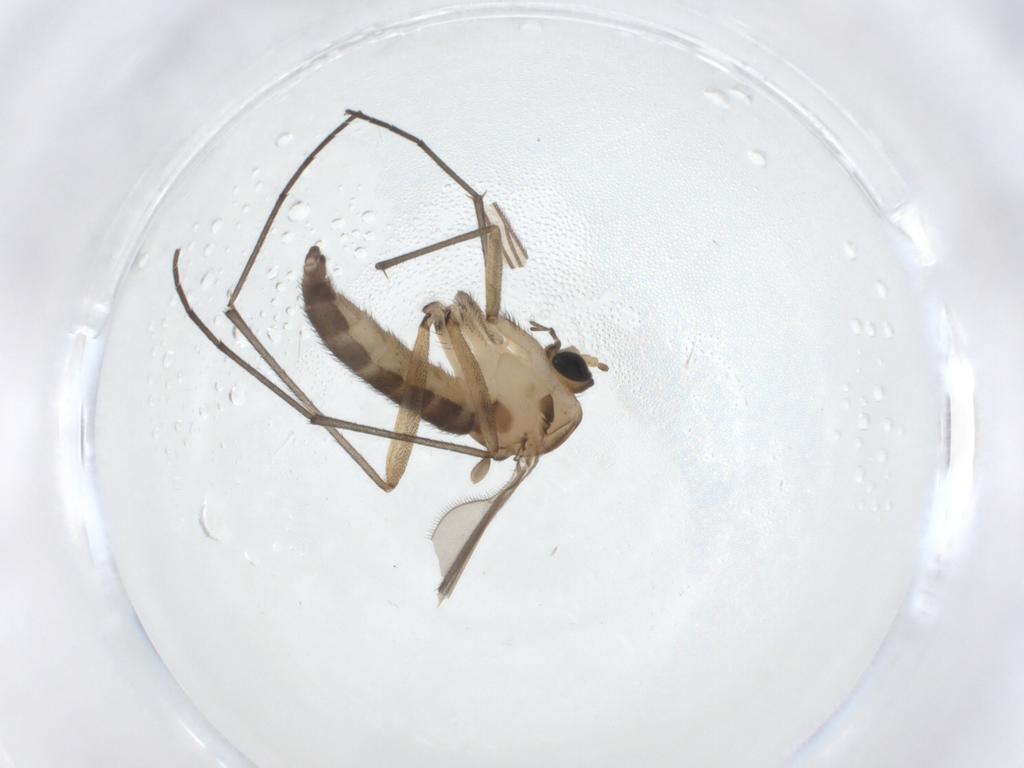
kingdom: Animalia
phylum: Arthropoda
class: Insecta
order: Diptera
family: Sciaridae
